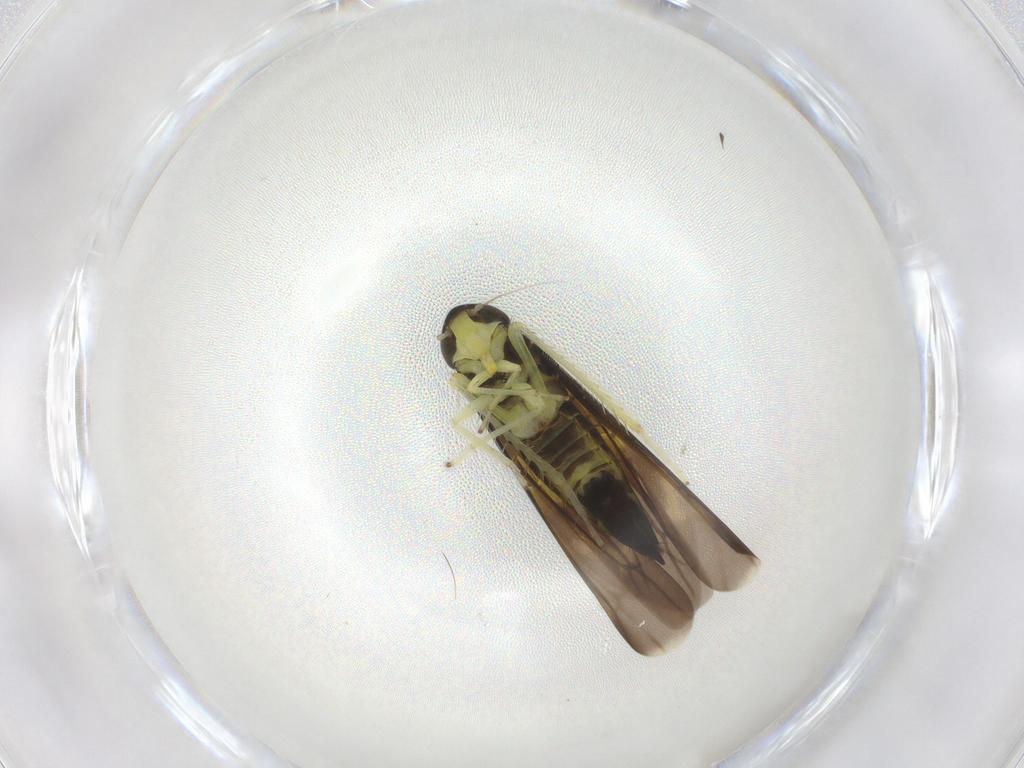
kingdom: Animalia
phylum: Arthropoda
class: Insecta
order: Hemiptera
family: Cicadellidae
